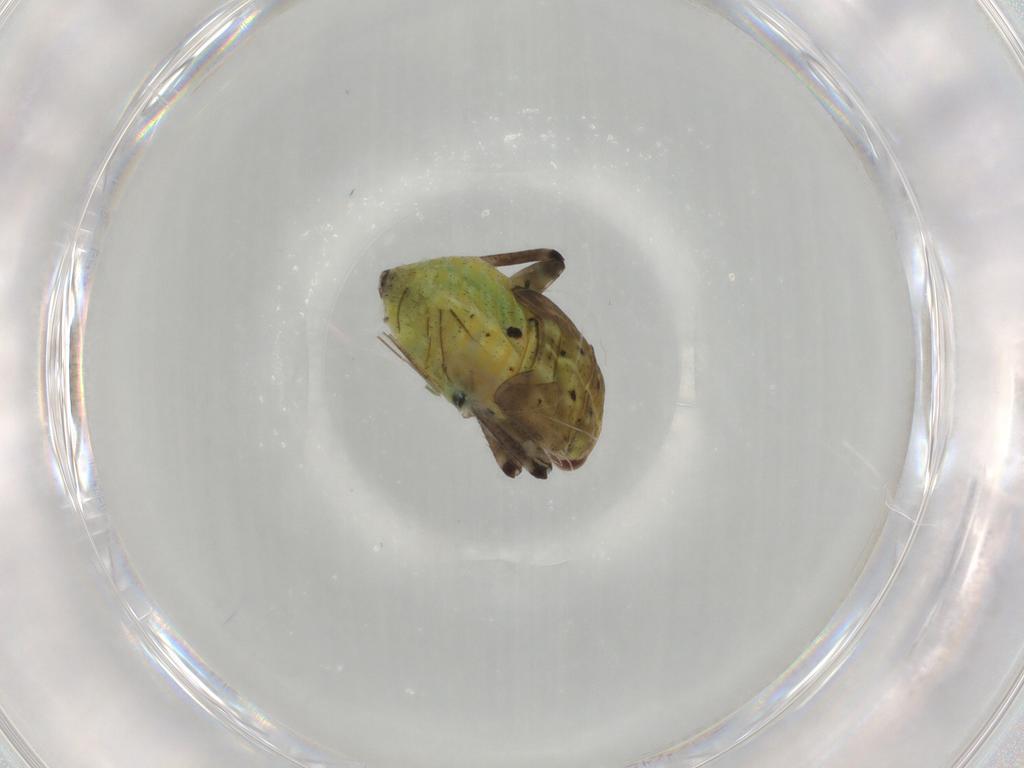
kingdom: Animalia
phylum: Arthropoda
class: Insecta
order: Hemiptera
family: Miridae
